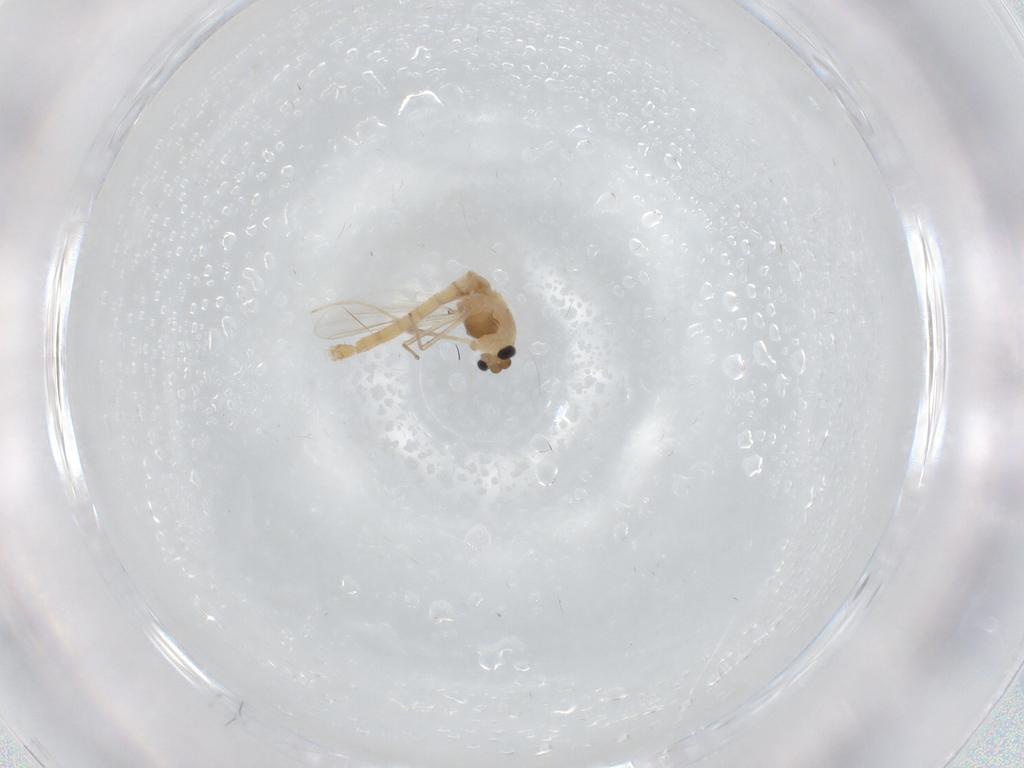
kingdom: Animalia
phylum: Arthropoda
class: Insecta
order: Diptera
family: Chironomidae
